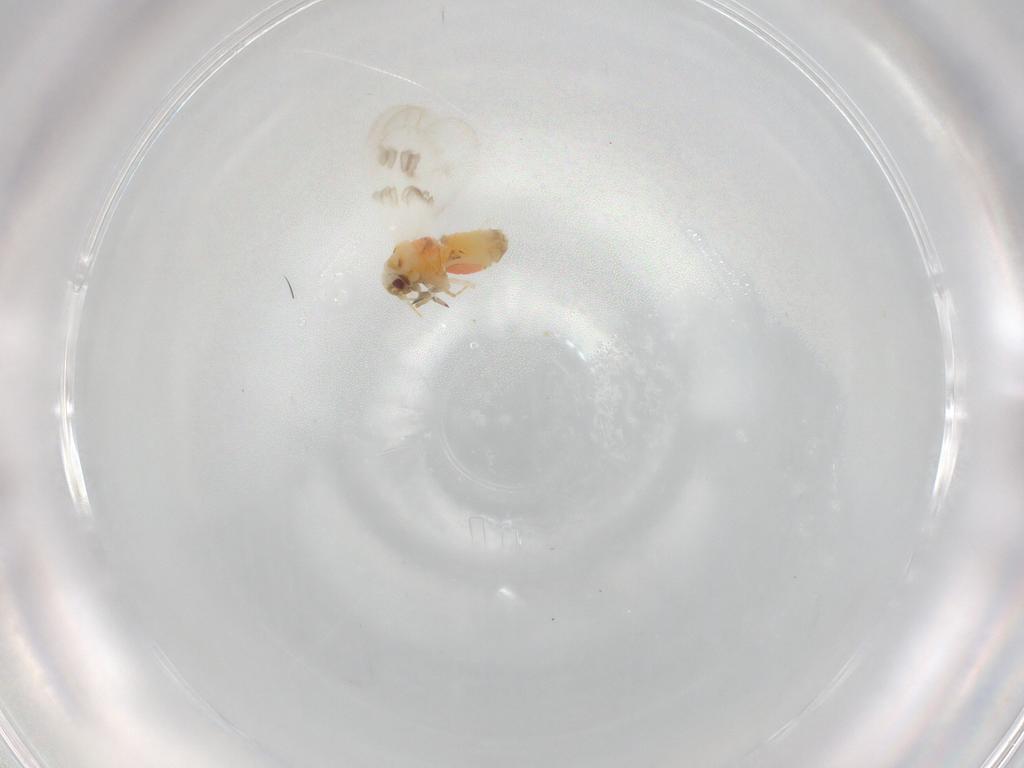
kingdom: Animalia
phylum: Arthropoda
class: Insecta
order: Hemiptera
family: Aleyrodidae
